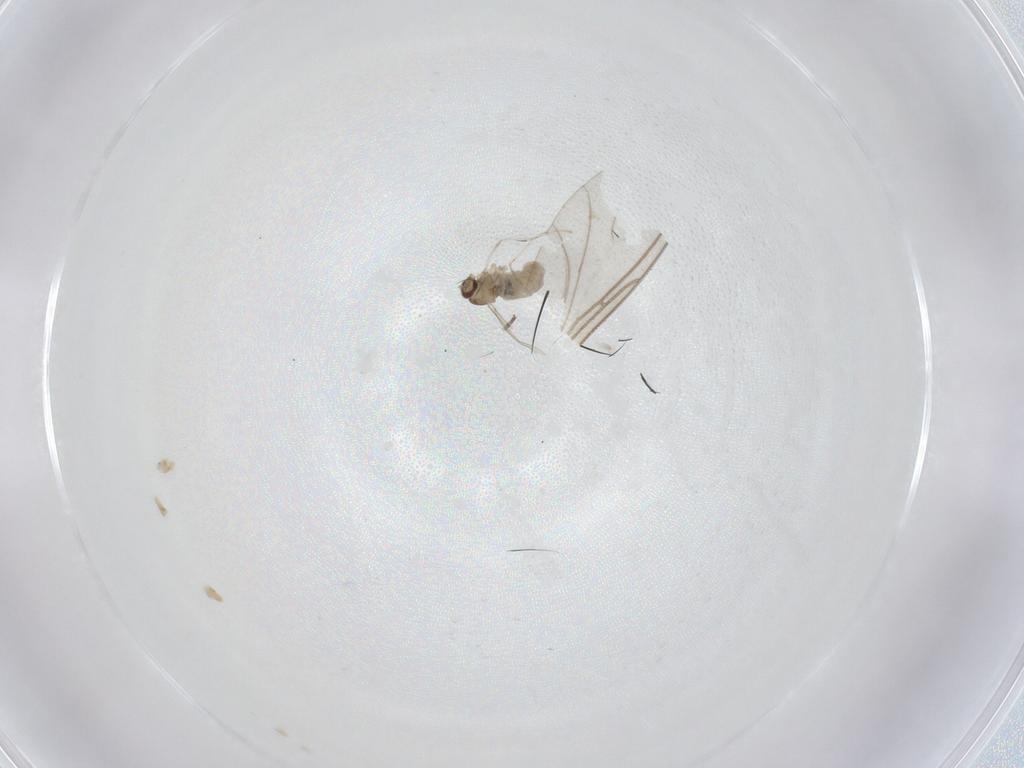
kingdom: Animalia
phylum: Arthropoda
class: Insecta
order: Diptera
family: Cecidomyiidae
